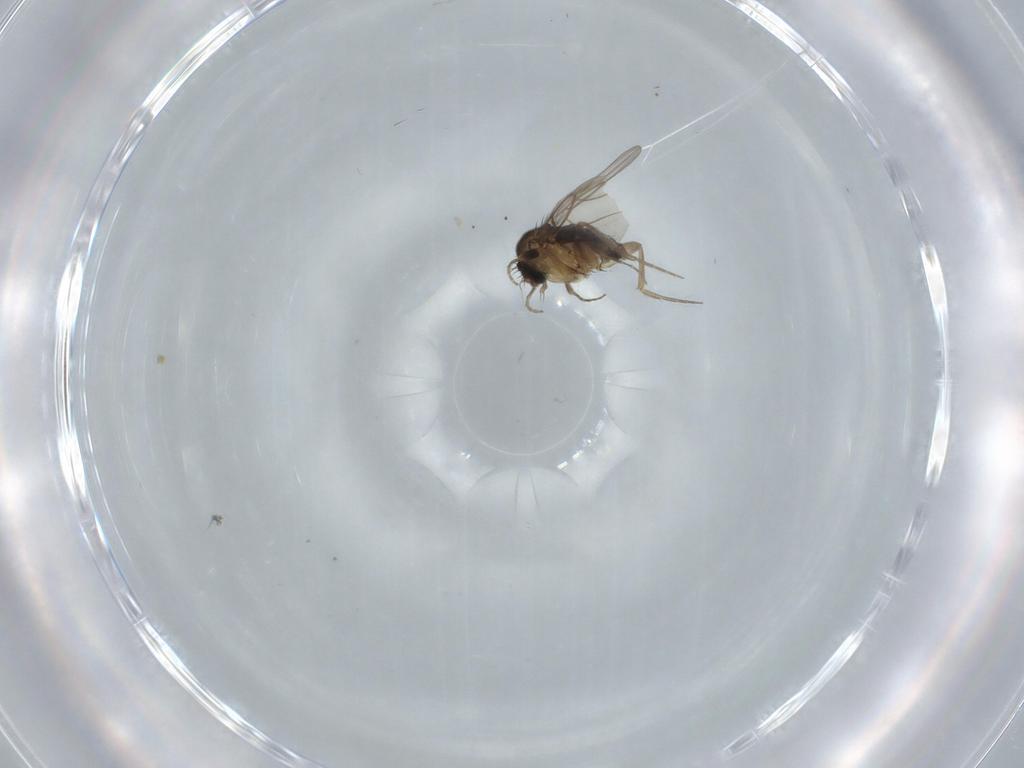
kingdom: Animalia
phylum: Arthropoda
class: Insecta
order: Diptera
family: Phoridae
